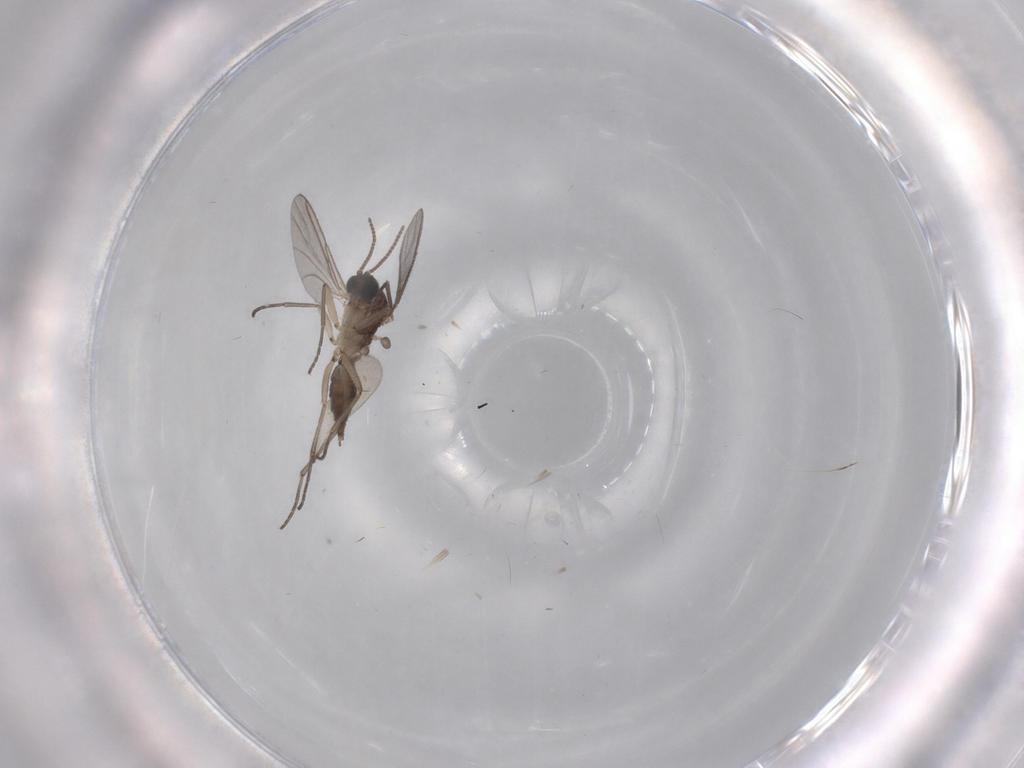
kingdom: Animalia
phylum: Arthropoda
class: Insecta
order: Diptera
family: Sciaridae
